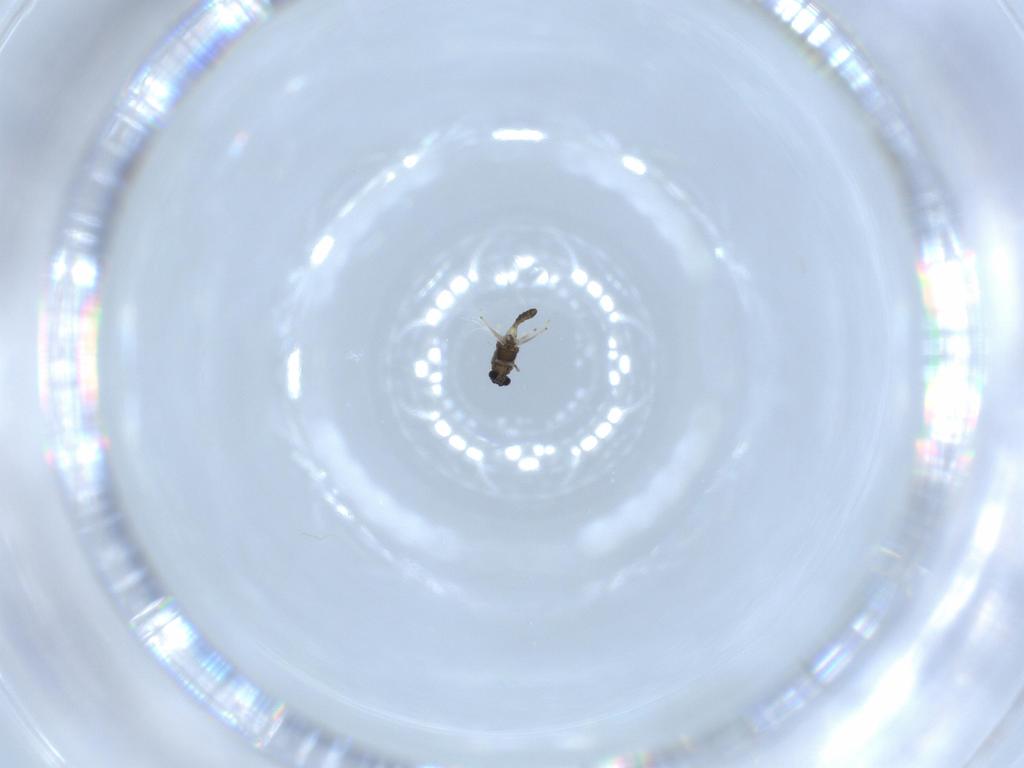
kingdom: Animalia
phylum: Arthropoda
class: Insecta
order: Diptera
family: Chironomidae
